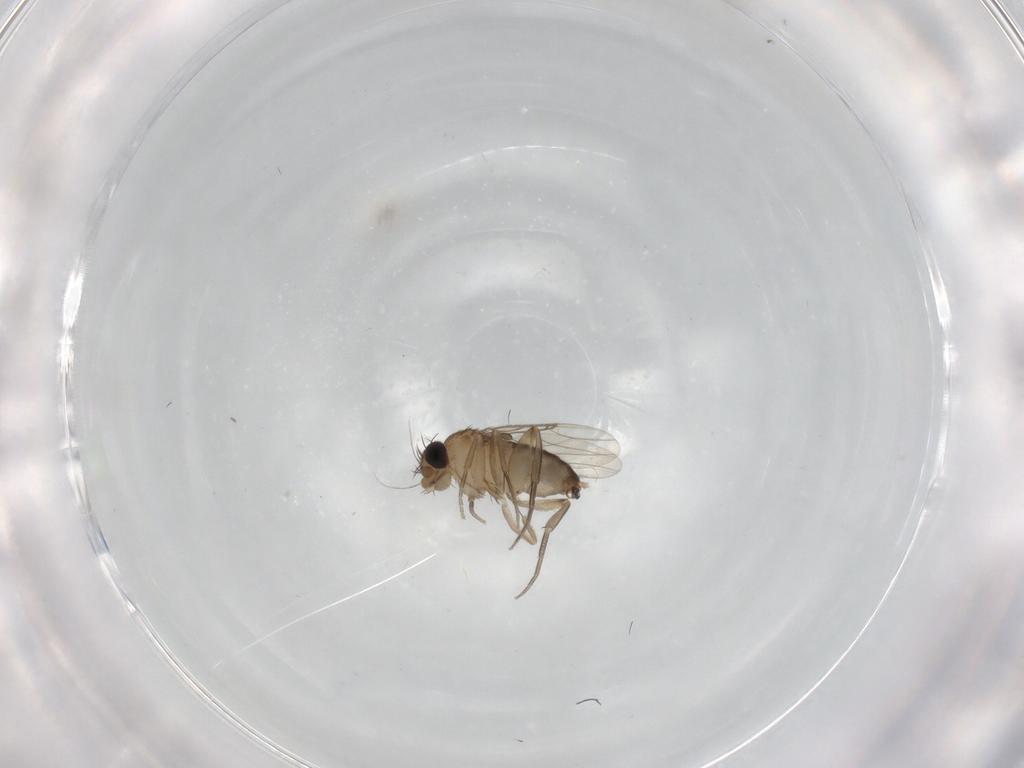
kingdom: Animalia
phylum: Arthropoda
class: Insecta
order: Diptera
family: Phoridae
